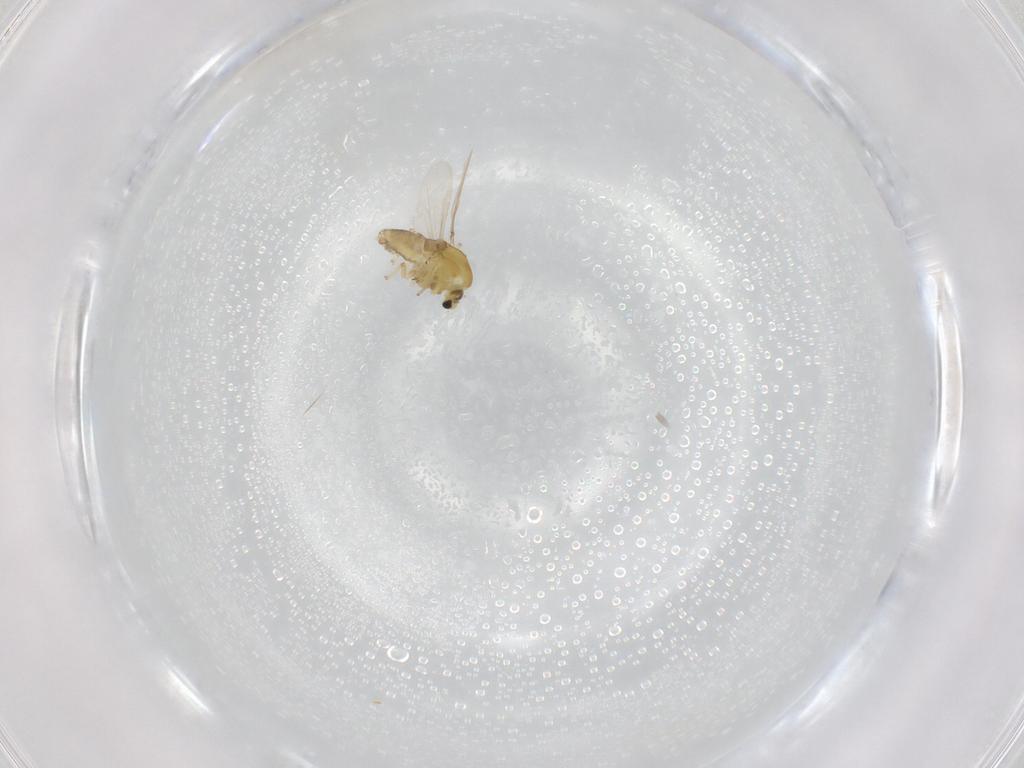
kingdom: Animalia
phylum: Arthropoda
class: Insecta
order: Diptera
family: Chironomidae
